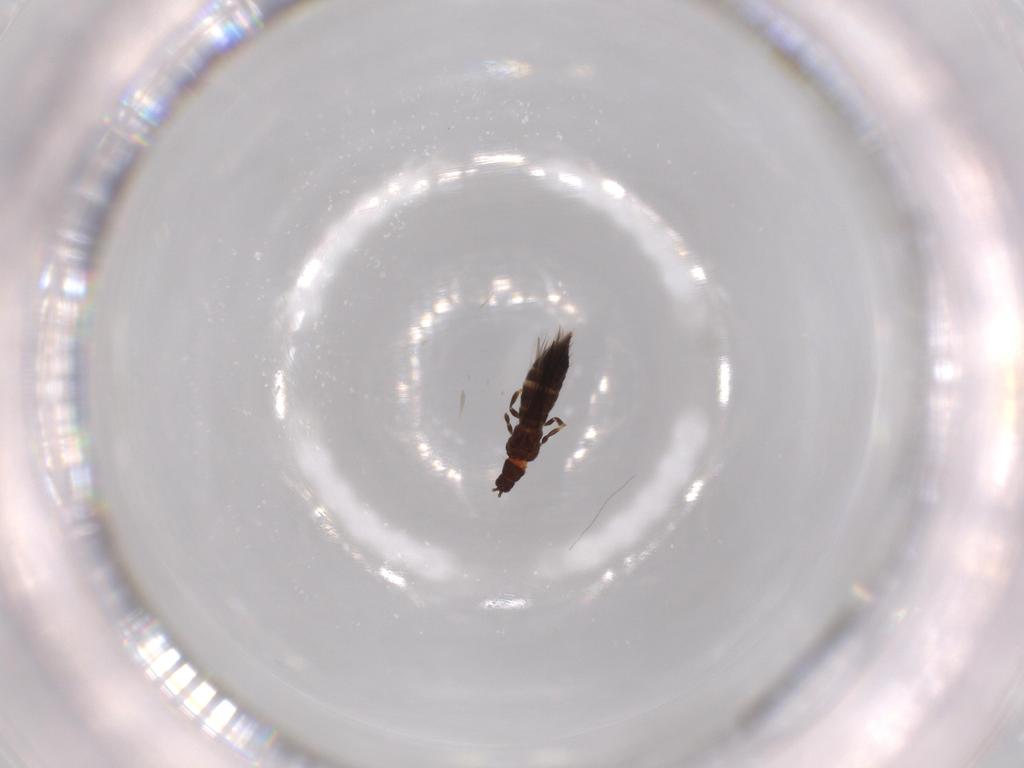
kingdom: Animalia
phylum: Arthropoda
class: Insecta
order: Thysanoptera
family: Thripidae
